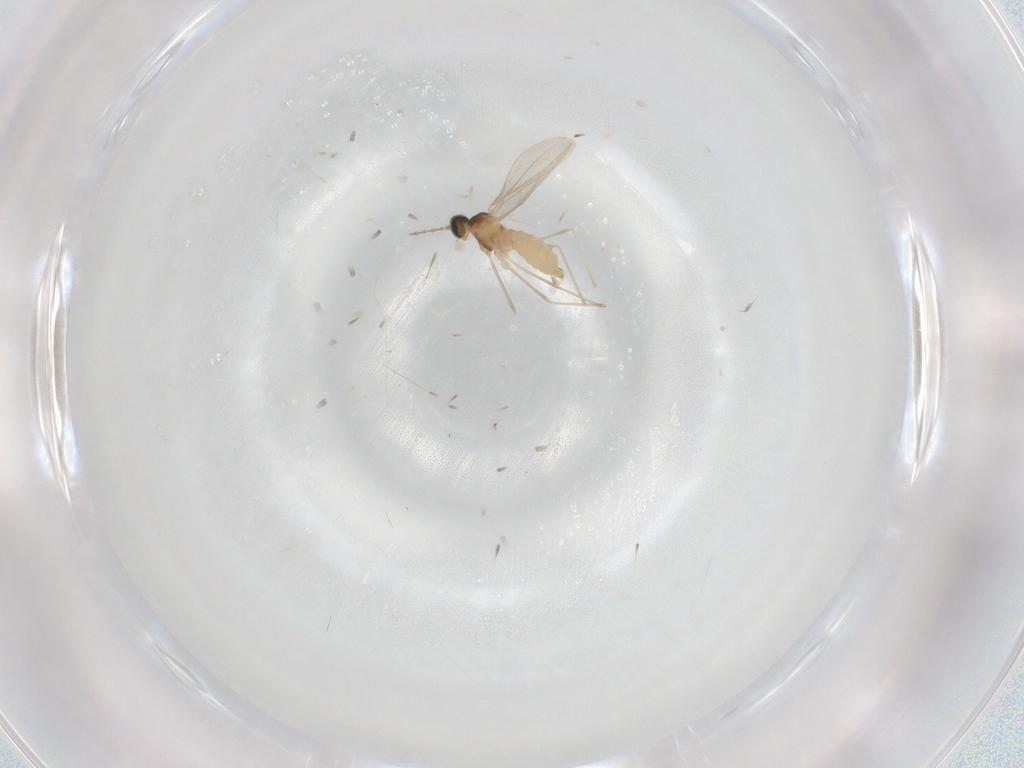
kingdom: Animalia
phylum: Arthropoda
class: Insecta
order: Diptera
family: Cecidomyiidae
